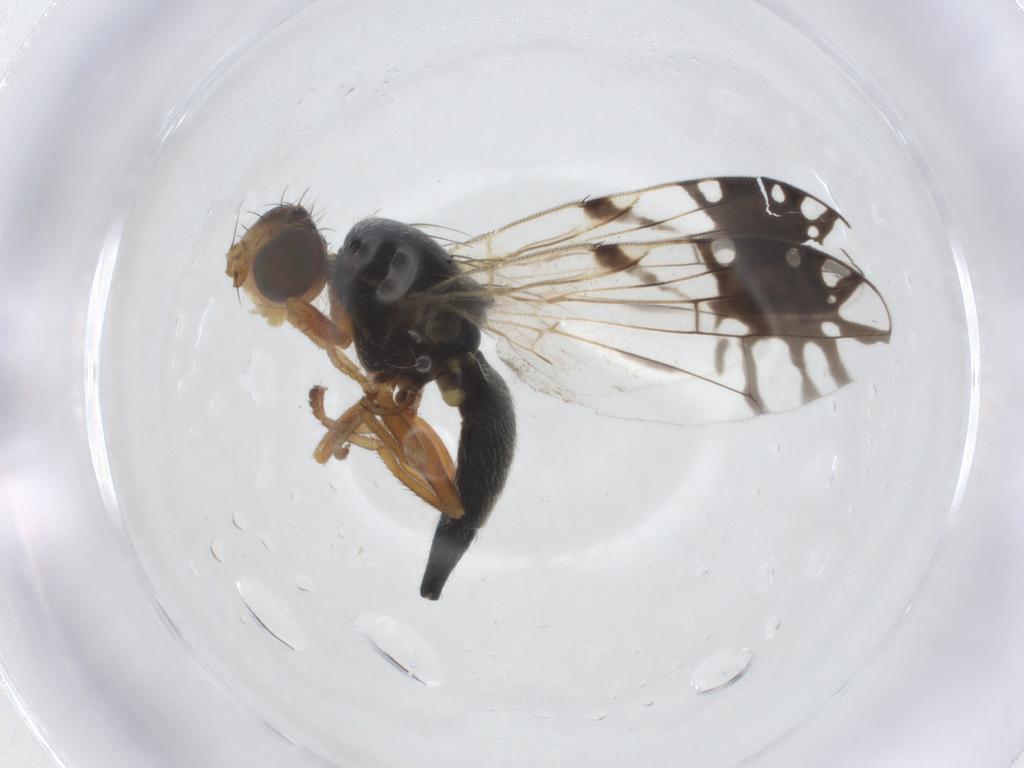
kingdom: Animalia
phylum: Arthropoda
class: Insecta
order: Diptera
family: Tephritidae
